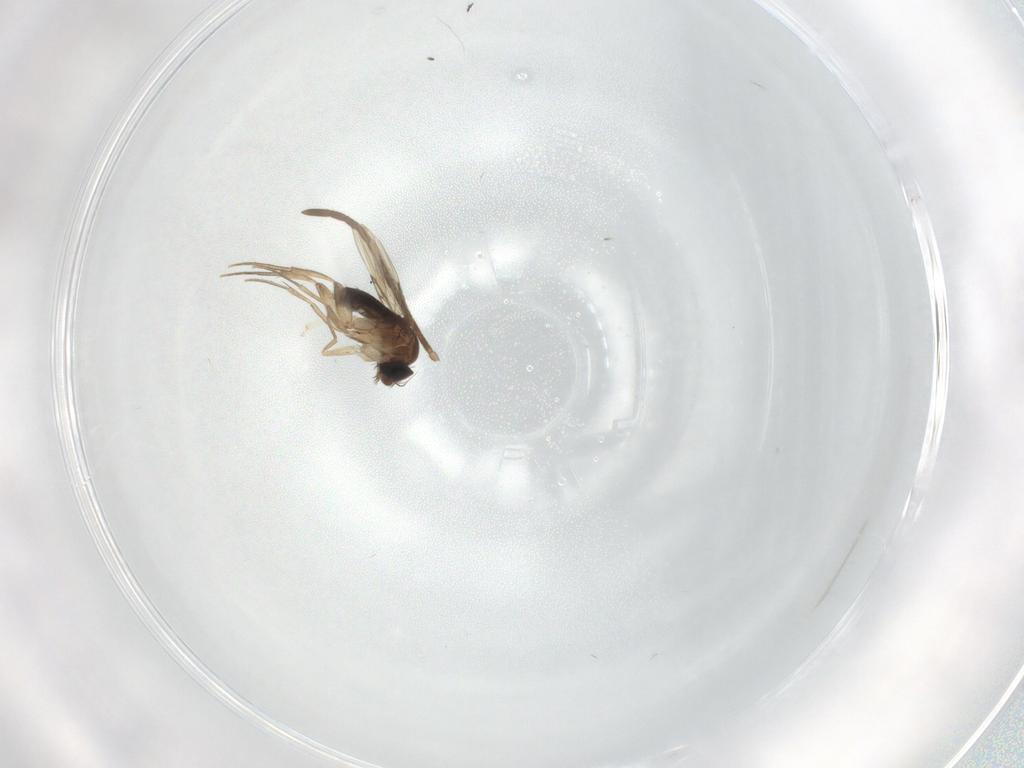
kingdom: Animalia
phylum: Arthropoda
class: Insecta
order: Diptera
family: Phoridae
